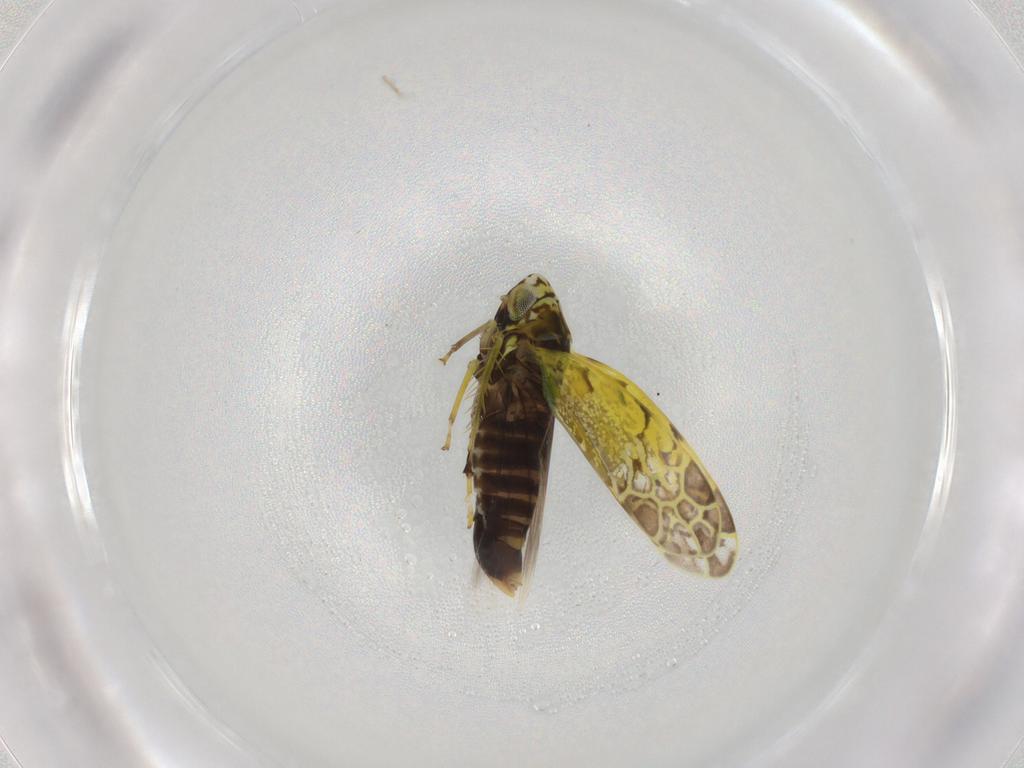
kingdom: Animalia
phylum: Arthropoda
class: Insecta
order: Hemiptera
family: Cicadellidae
